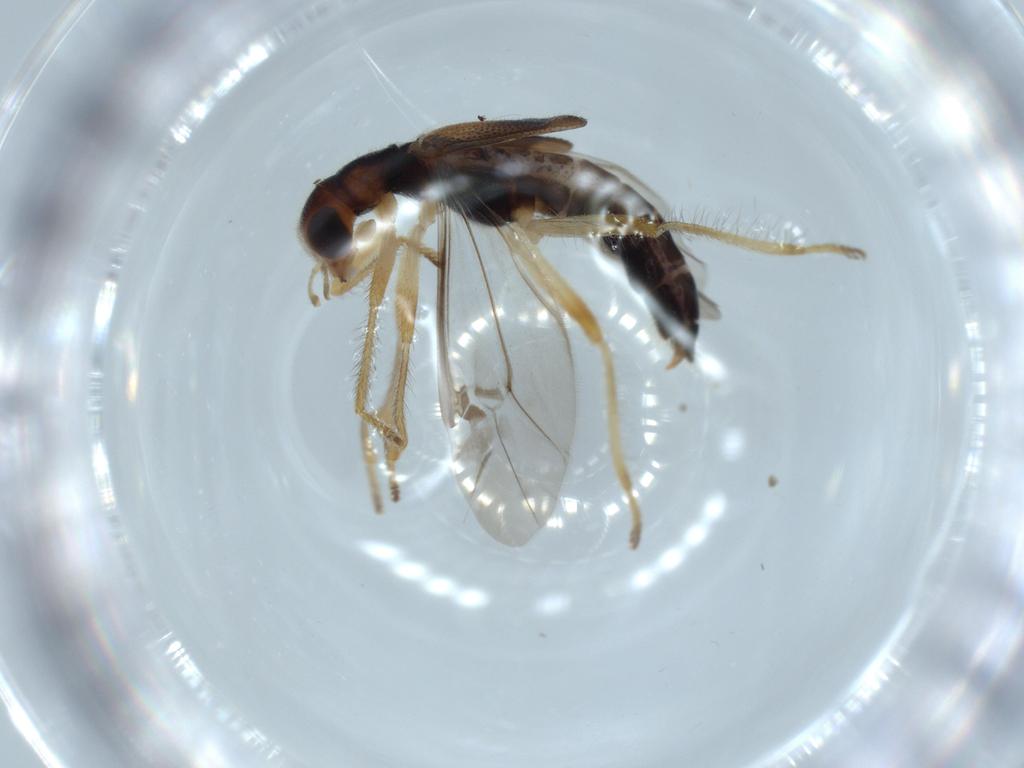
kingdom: Animalia
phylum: Arthropoda
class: Insecta
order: Coleoptera
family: Cleridae
